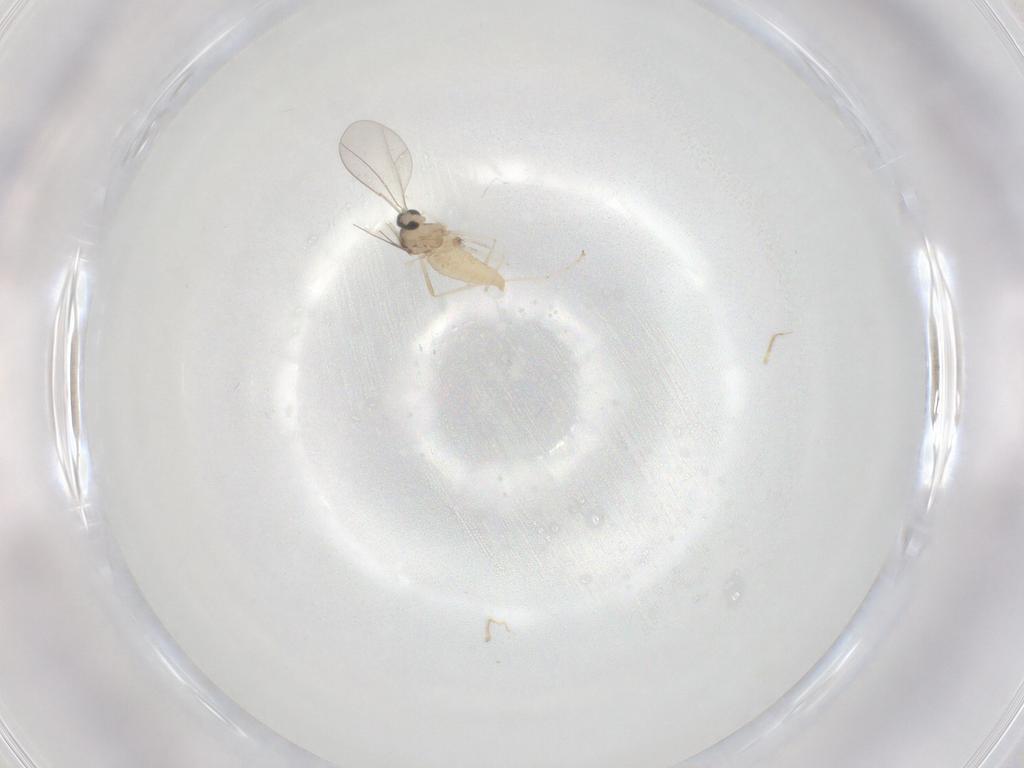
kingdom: Animalia
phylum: Arthropoda
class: Insecta
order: Diptera
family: Cecidomyiidae
